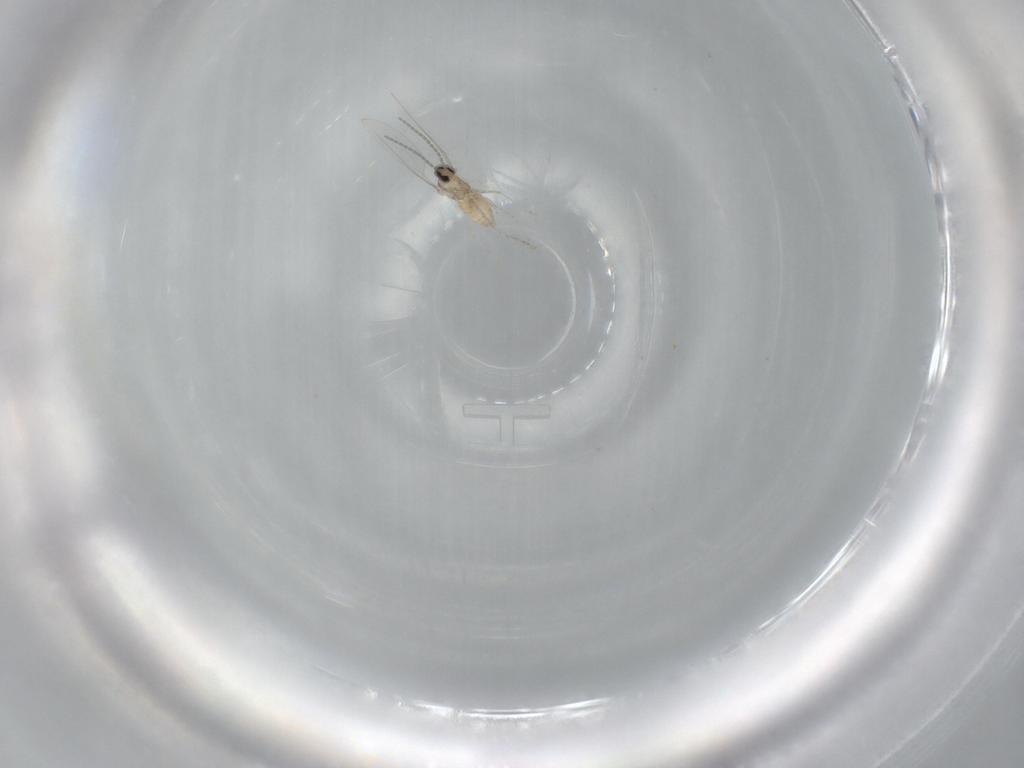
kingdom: Animalia
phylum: Arthropoda
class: Insecta
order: Diptera
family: Cecidomyiidae
